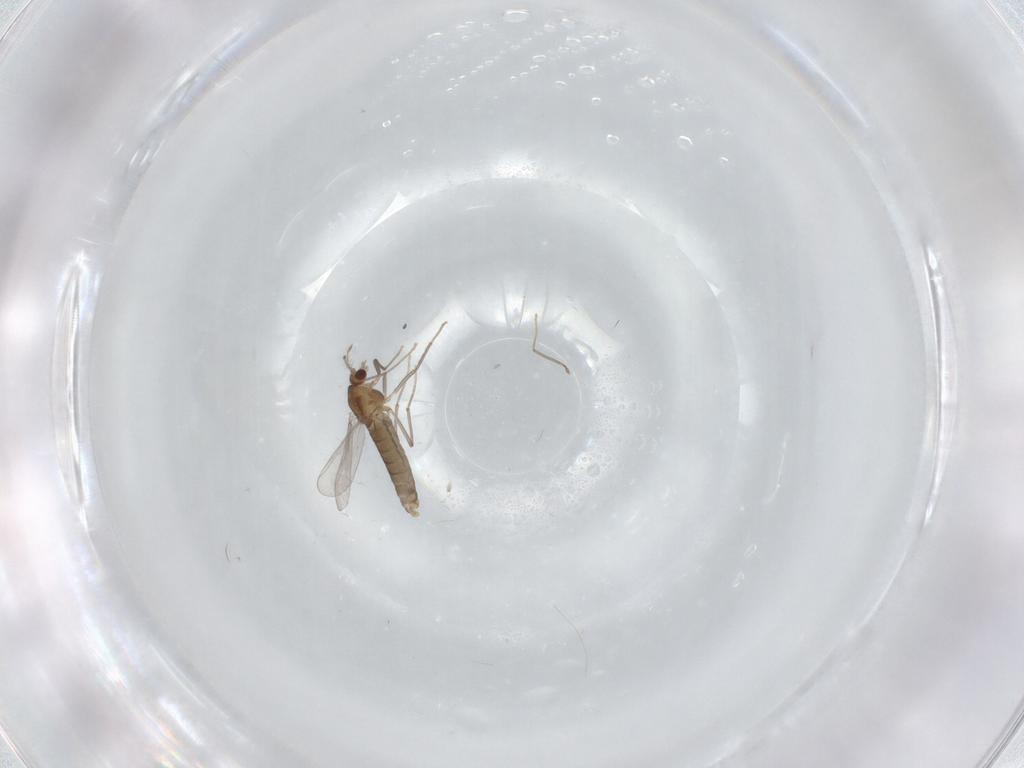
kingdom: Animalia
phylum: Arthropoda
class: Insecta
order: Diptera
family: Chironomidae
